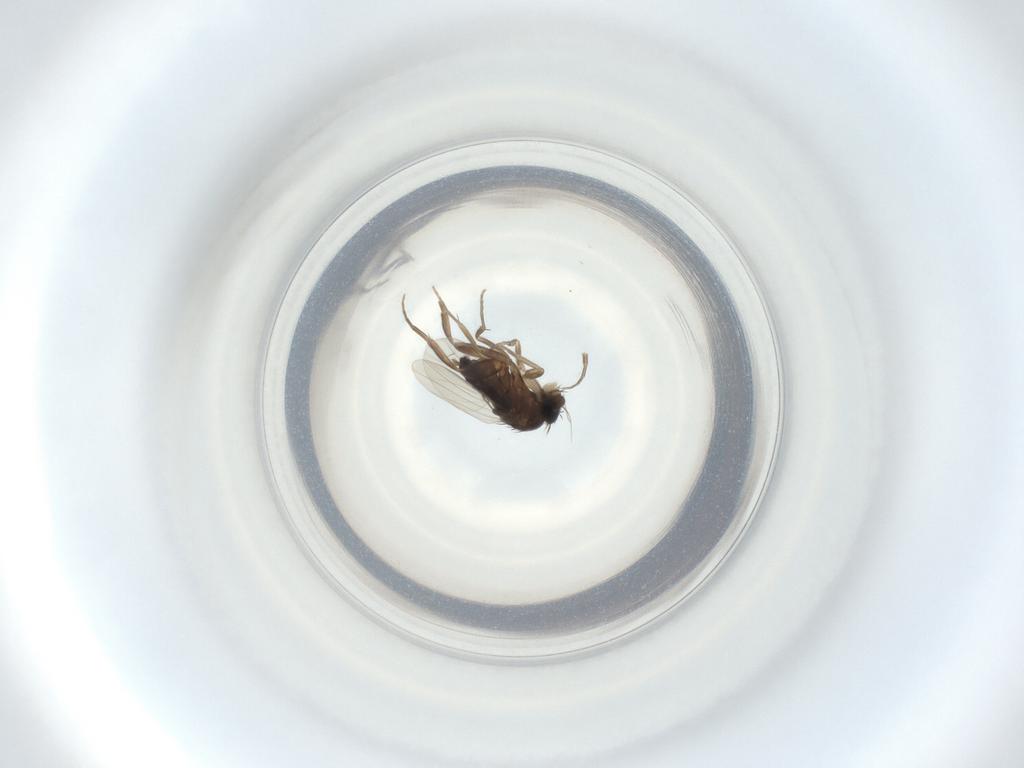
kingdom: Animalia
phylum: Arthropoda
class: Insecta
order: Diptera
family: Phoridae
